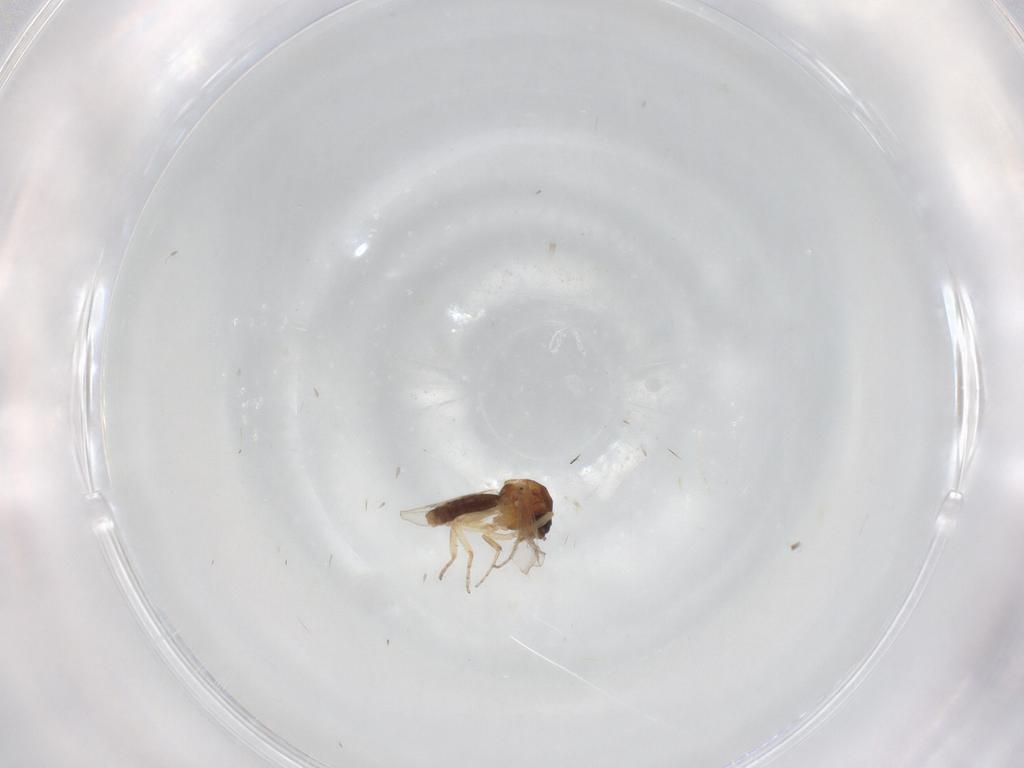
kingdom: Animalia
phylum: Arthropoda
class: Insecta
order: Diptera
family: Ceratopogonidae
